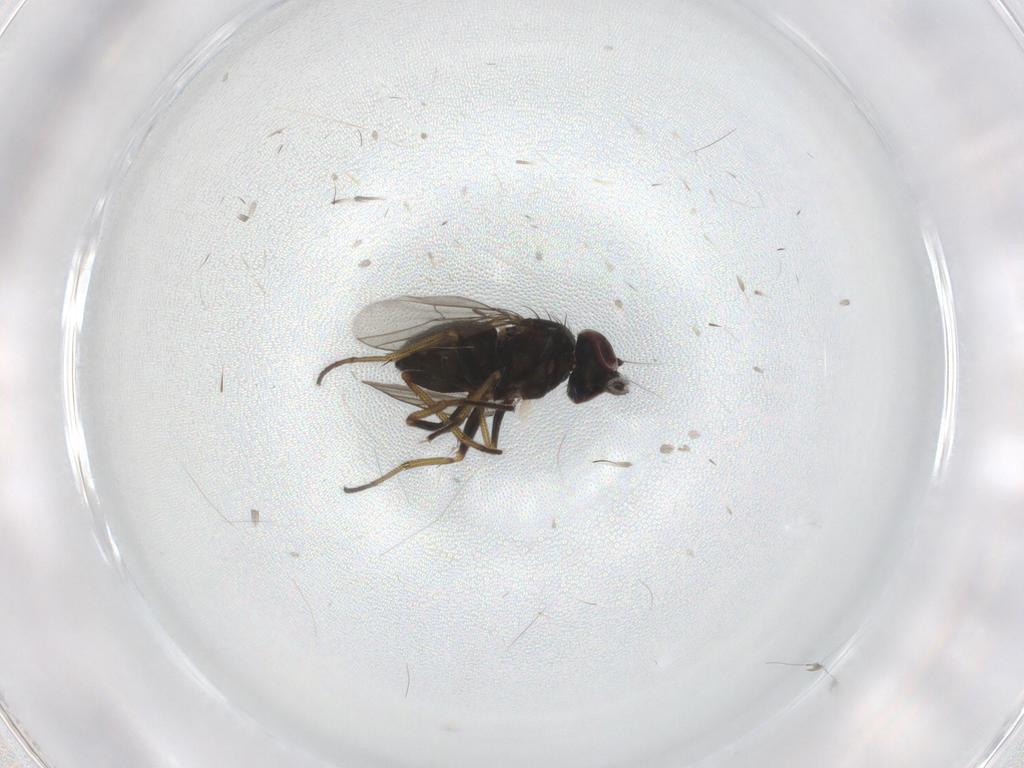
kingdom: Animalia
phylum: Arthropoda
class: Insecta
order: Diptera
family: Dolichopodidae
